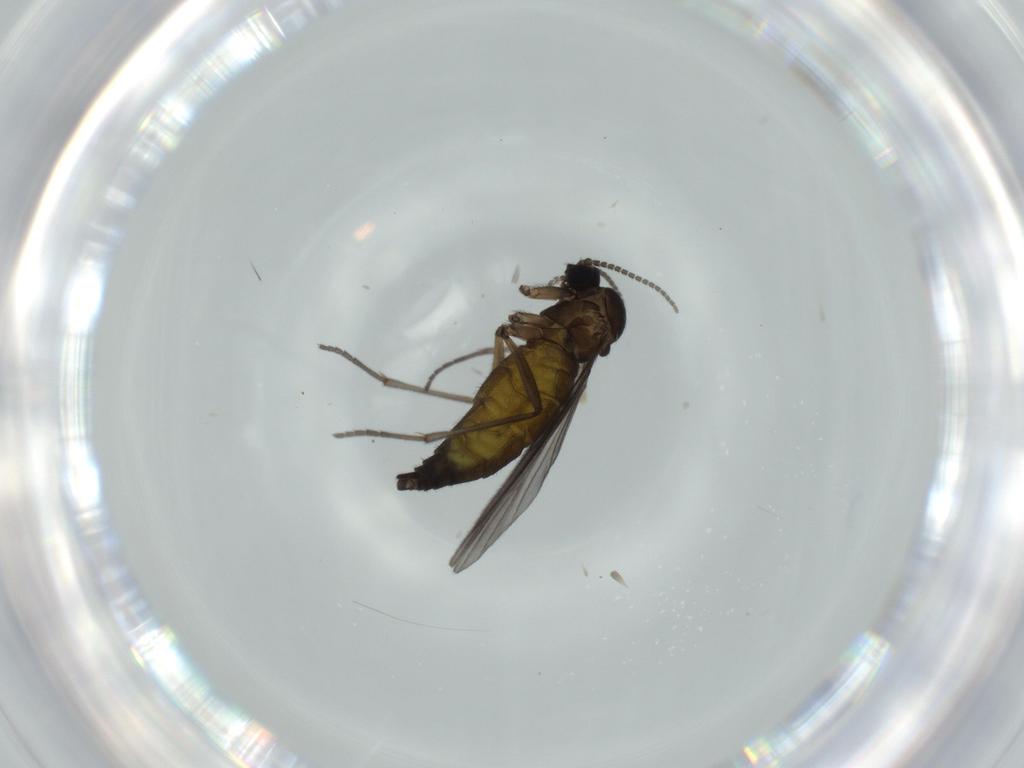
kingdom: Animalia
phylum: Arthropoda
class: Insecta
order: Diptera
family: Sciaridae
